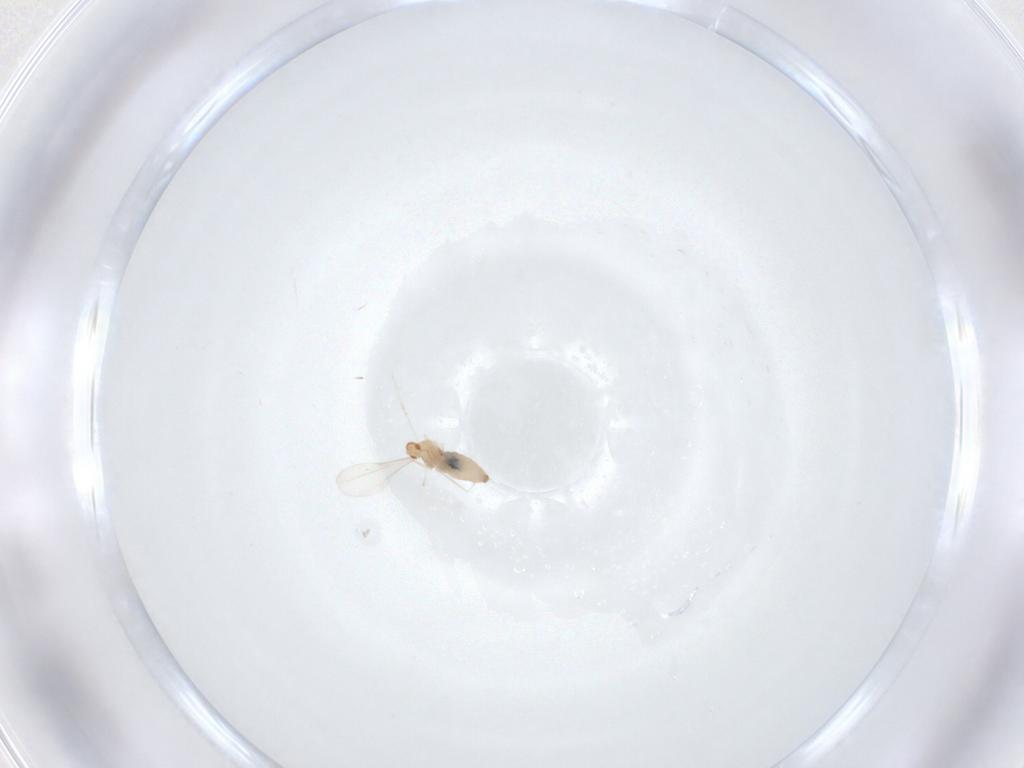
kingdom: Animalia
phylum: Arthropoda
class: Insecta
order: Diptera
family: Cecidomyiidae
